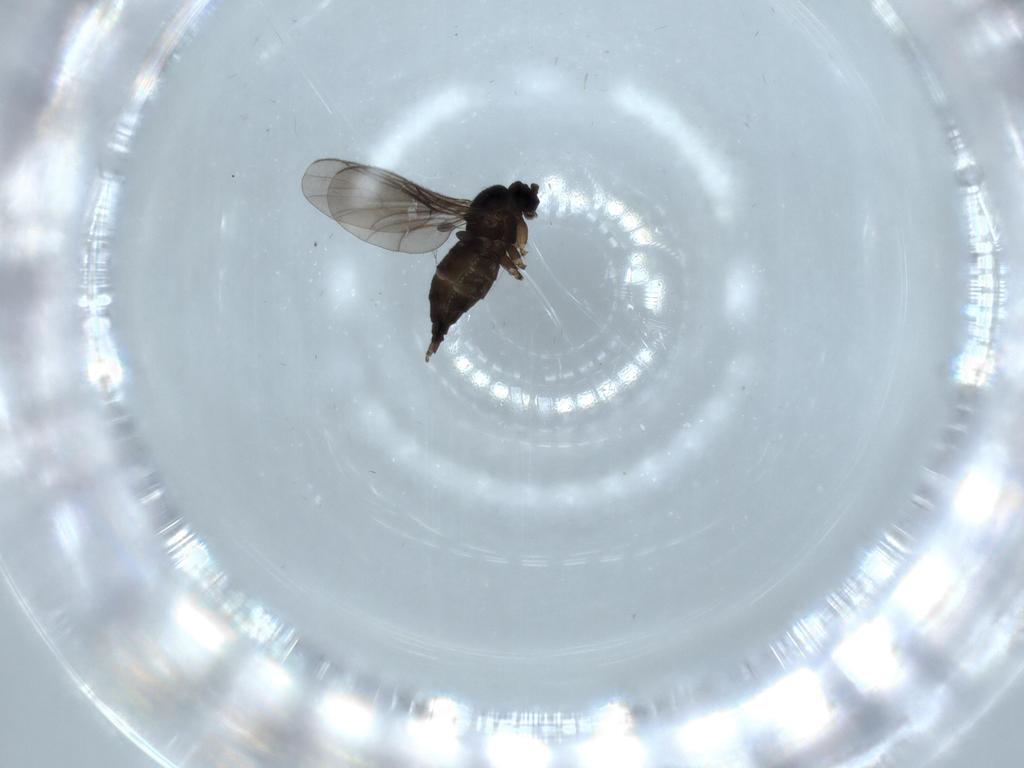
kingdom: Animalia
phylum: Arthropoda
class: Insecta
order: Diptera
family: Sciaridae
